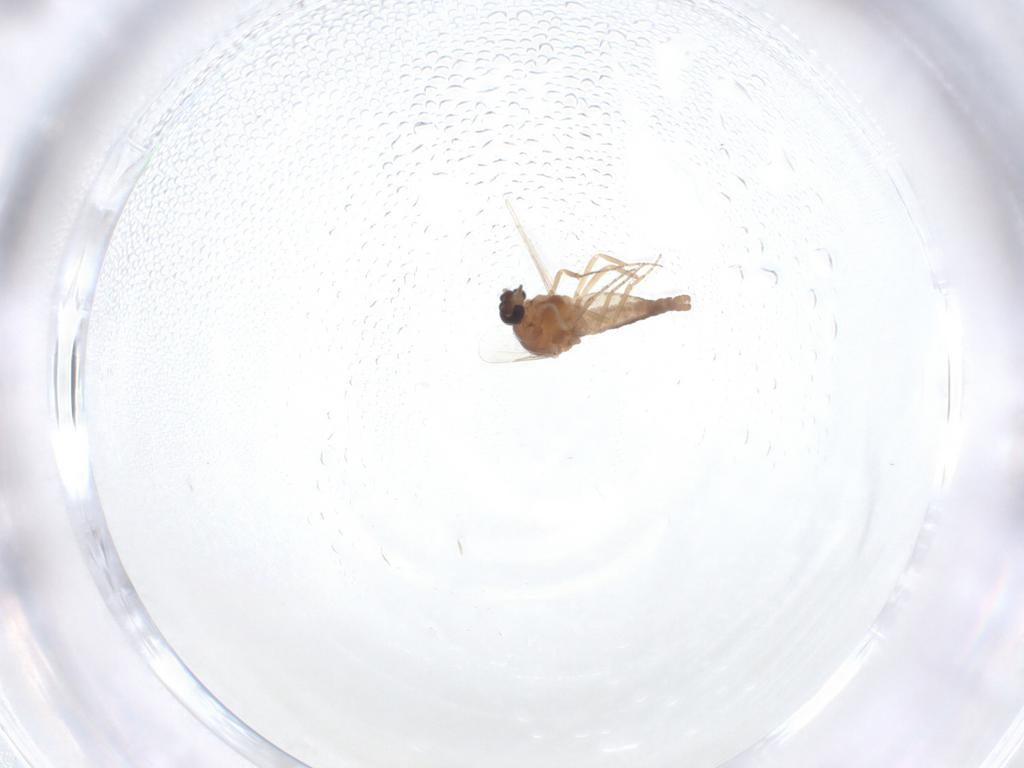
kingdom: Animalia
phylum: Arthropoda
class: Insecta
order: Diptera
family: Ceratopogonidae
